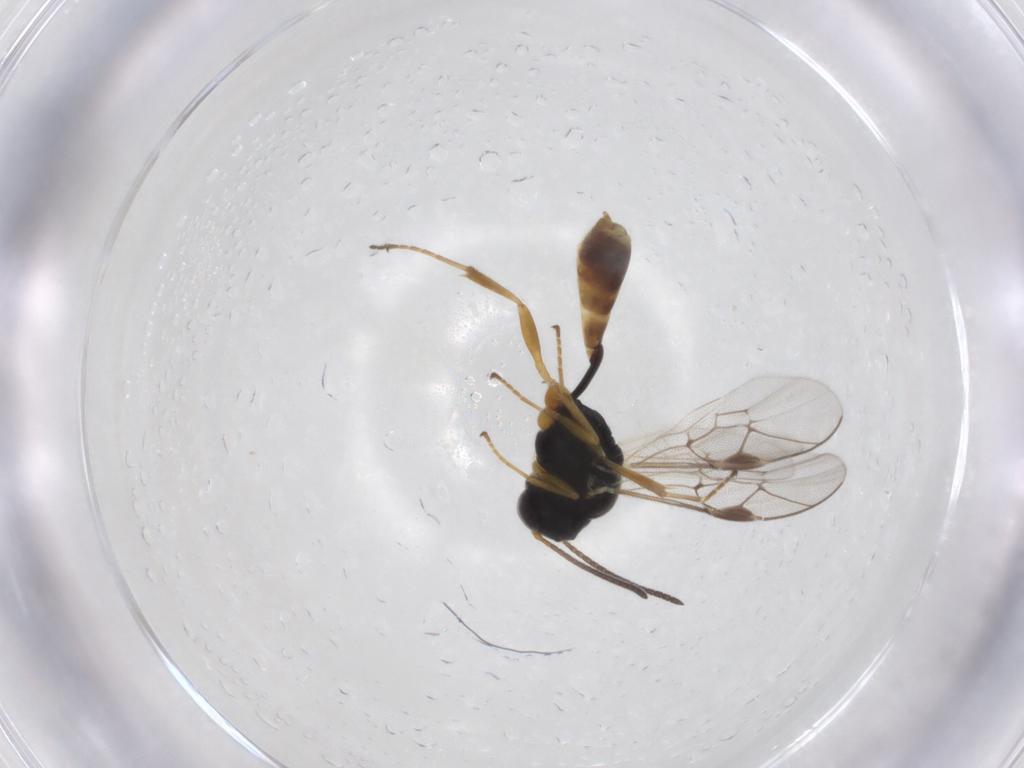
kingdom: Animalia
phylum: Arthropoda
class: Insecta
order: Hymenoptera
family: Ichneumonidae
